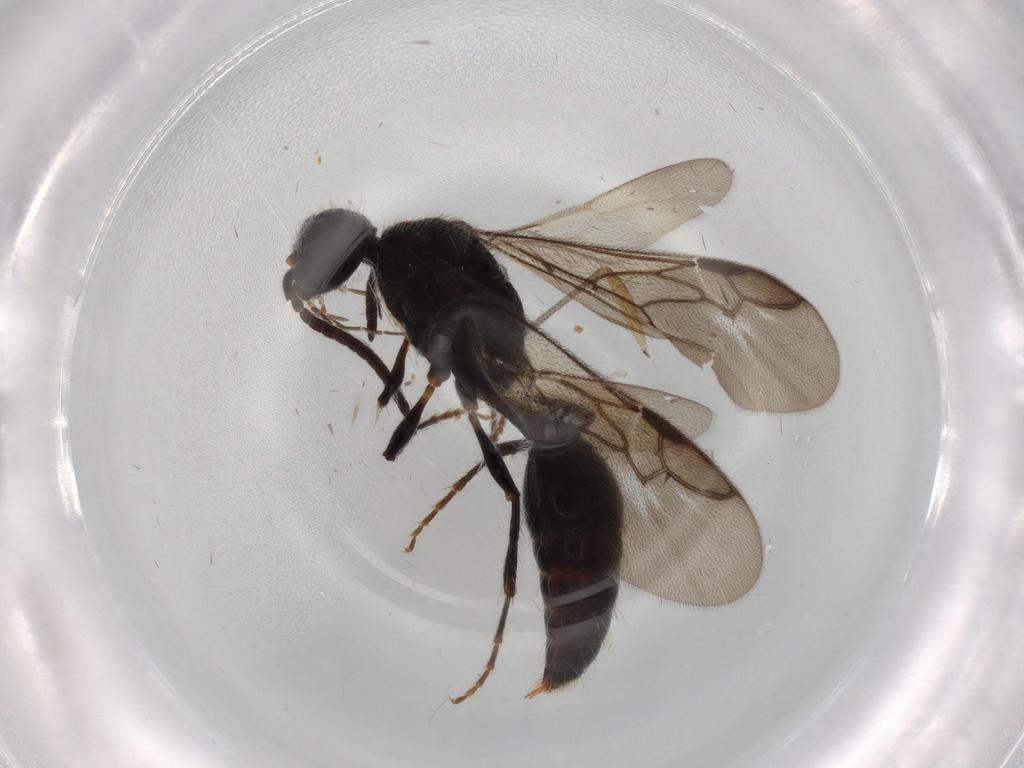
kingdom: Animalia
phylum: Arthropoda
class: Insecta
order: Hymenoptera
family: Mutillidae
